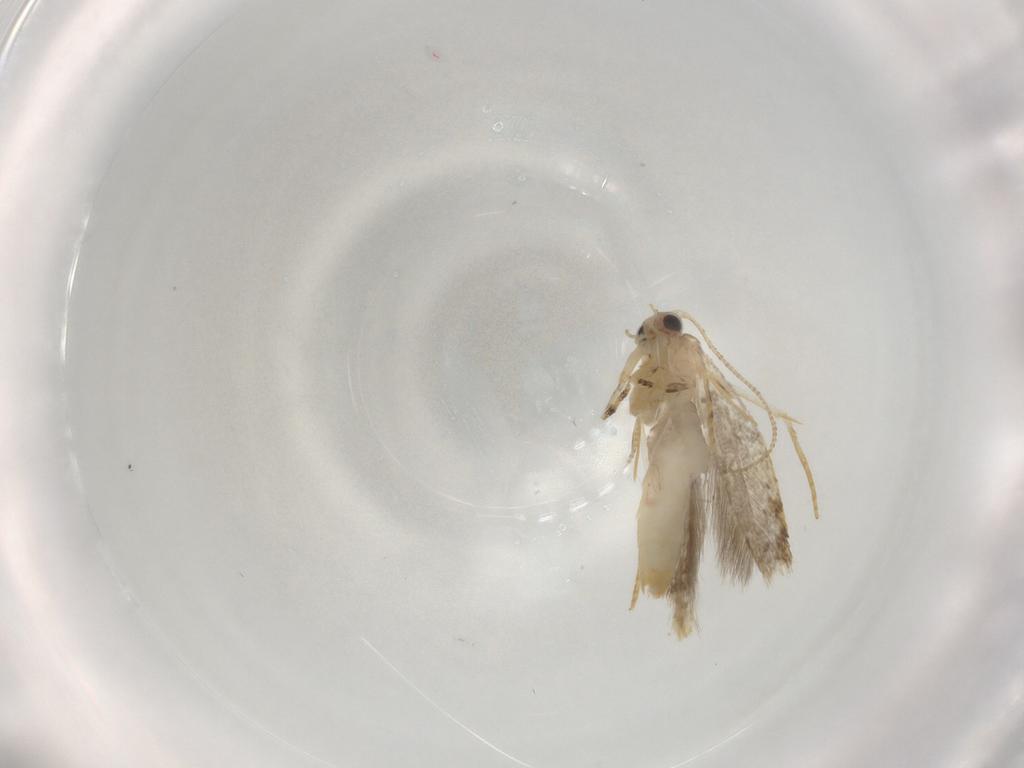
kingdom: Animalia
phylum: Arthropoda
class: Insecta
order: Lepidoptera
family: Tineidae
